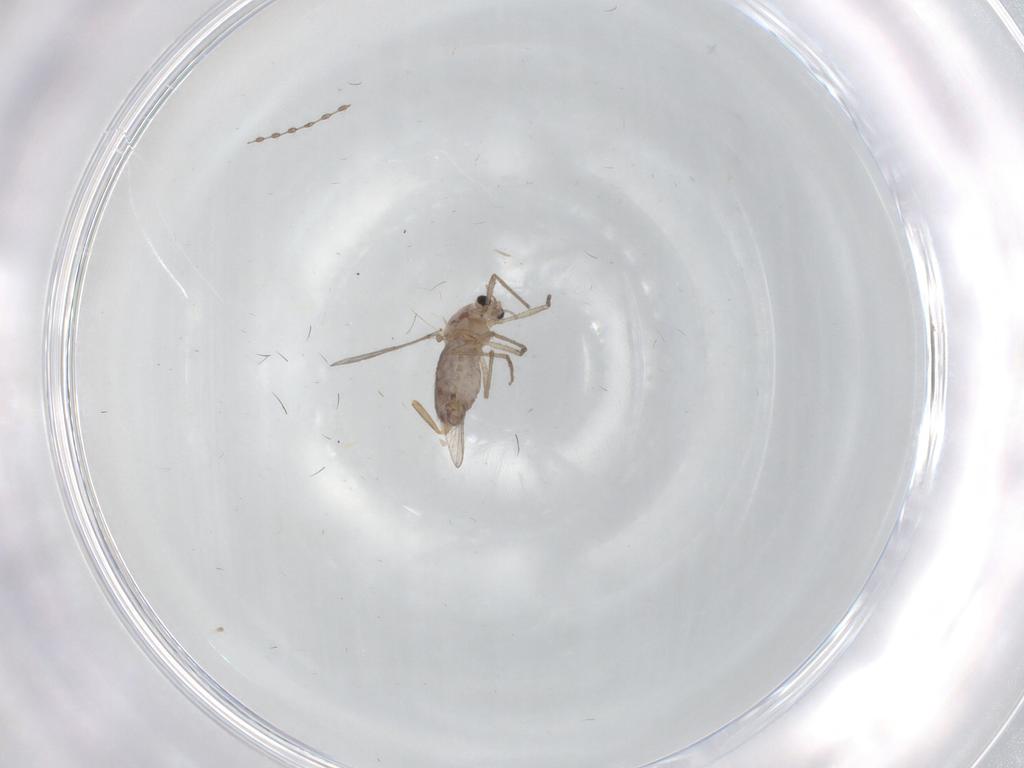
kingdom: Animalia
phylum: Arthropoda
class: Insecta
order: Diptera
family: Chironomidae
